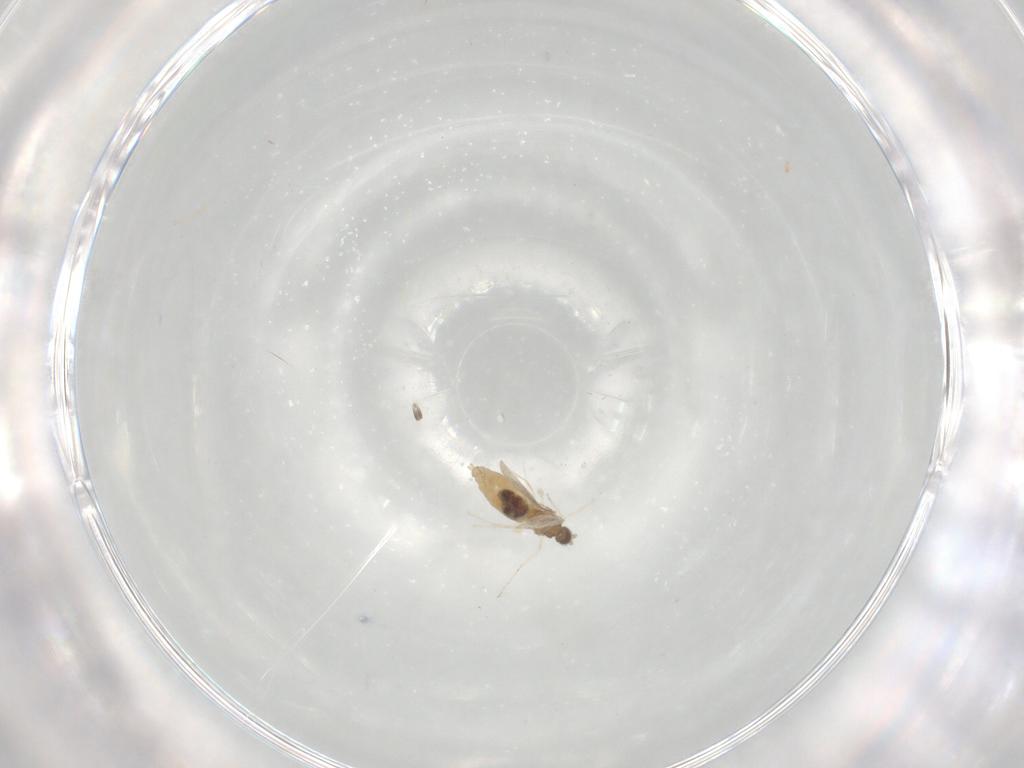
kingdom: Animalia
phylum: Arthropoda
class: Insecta
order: Diptera
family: Cecidomyiidae
